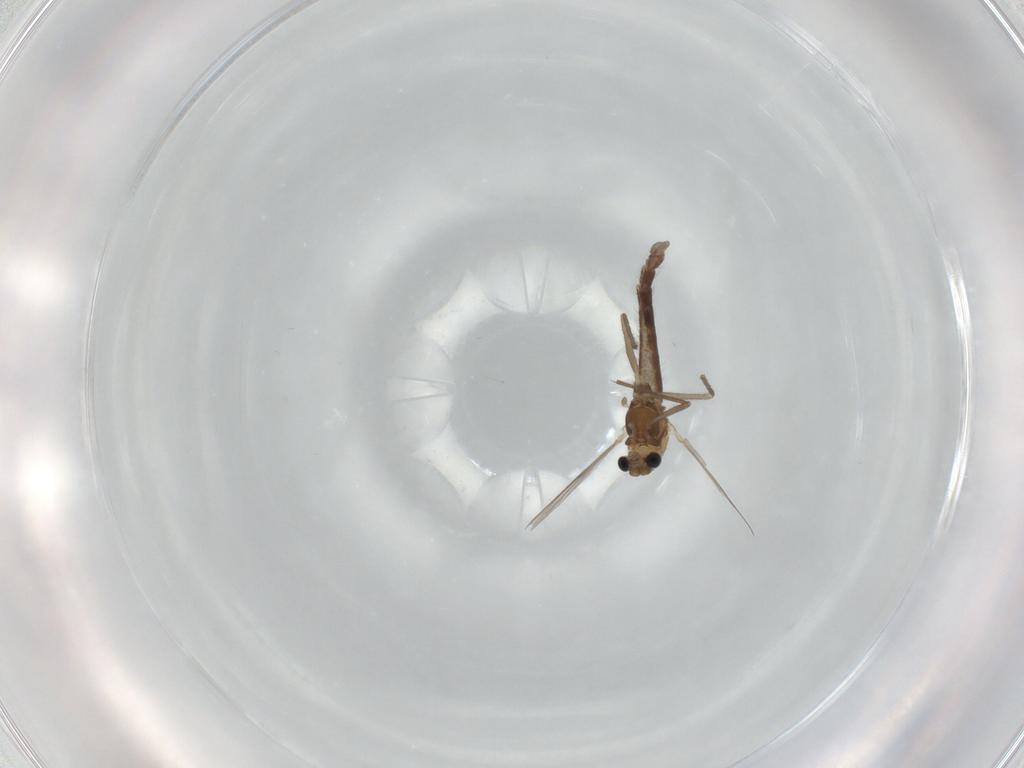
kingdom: Animalia
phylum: Arthropoda
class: Insecta
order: Diptera
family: Chironomidae
